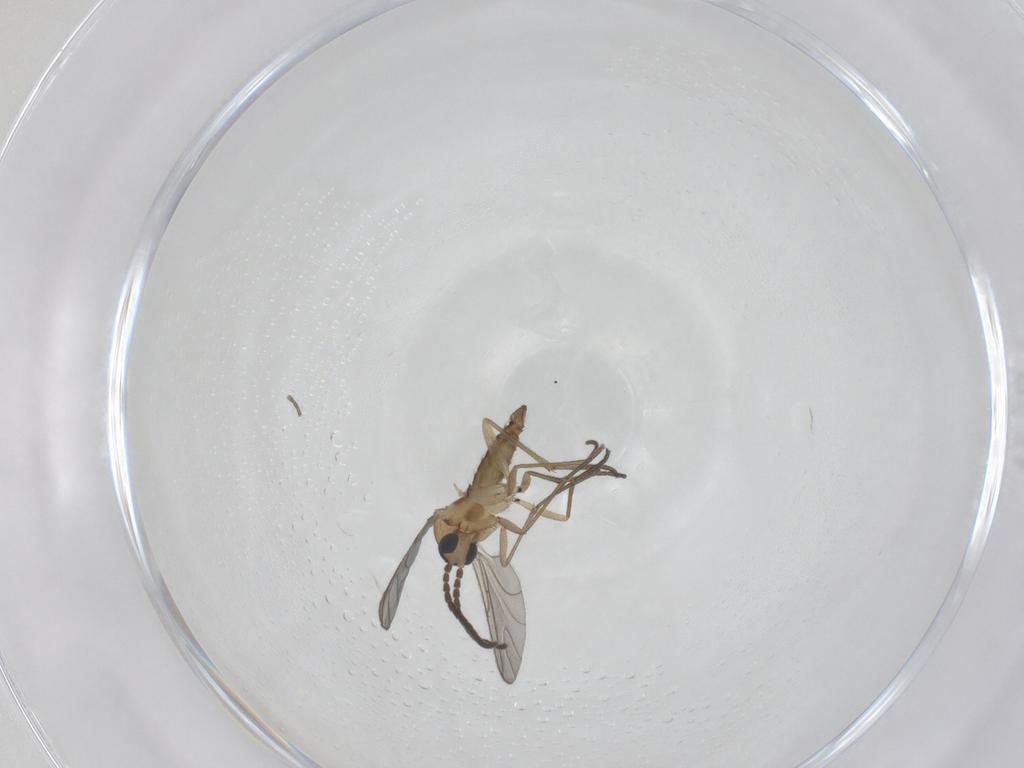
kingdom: Animalia
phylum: Arthropoda
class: Insecta
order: Diptera
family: Sciaridae
